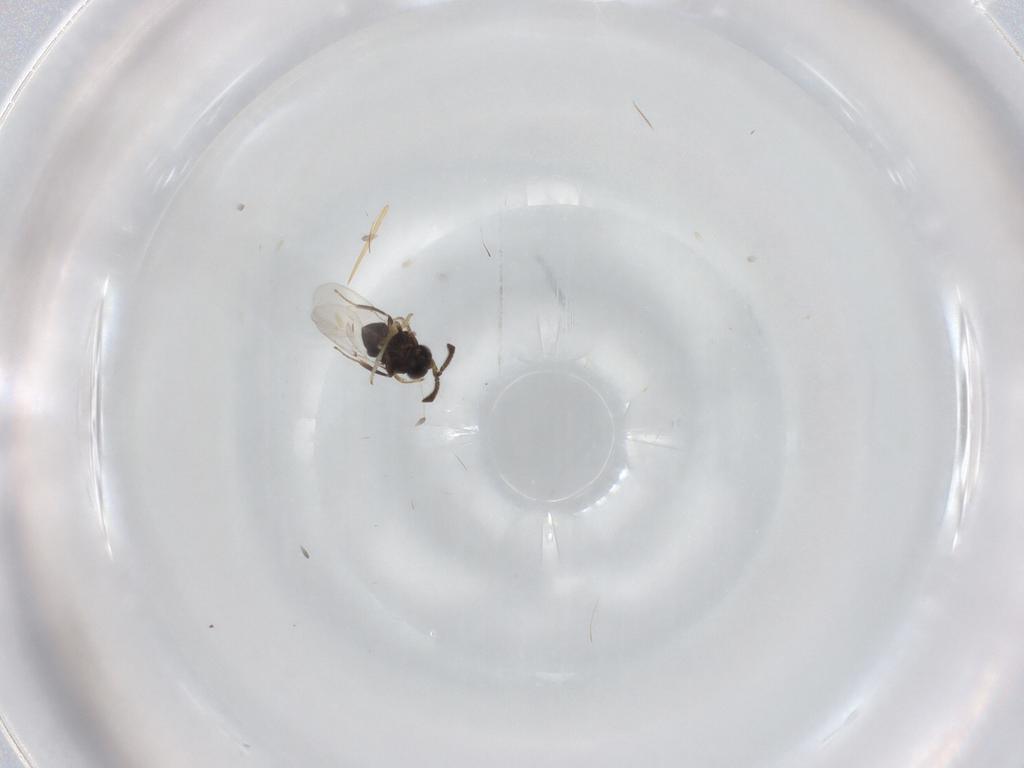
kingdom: Animalia
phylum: Arthropoda
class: Insecta
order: Hymenoptera
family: Diapriidae
